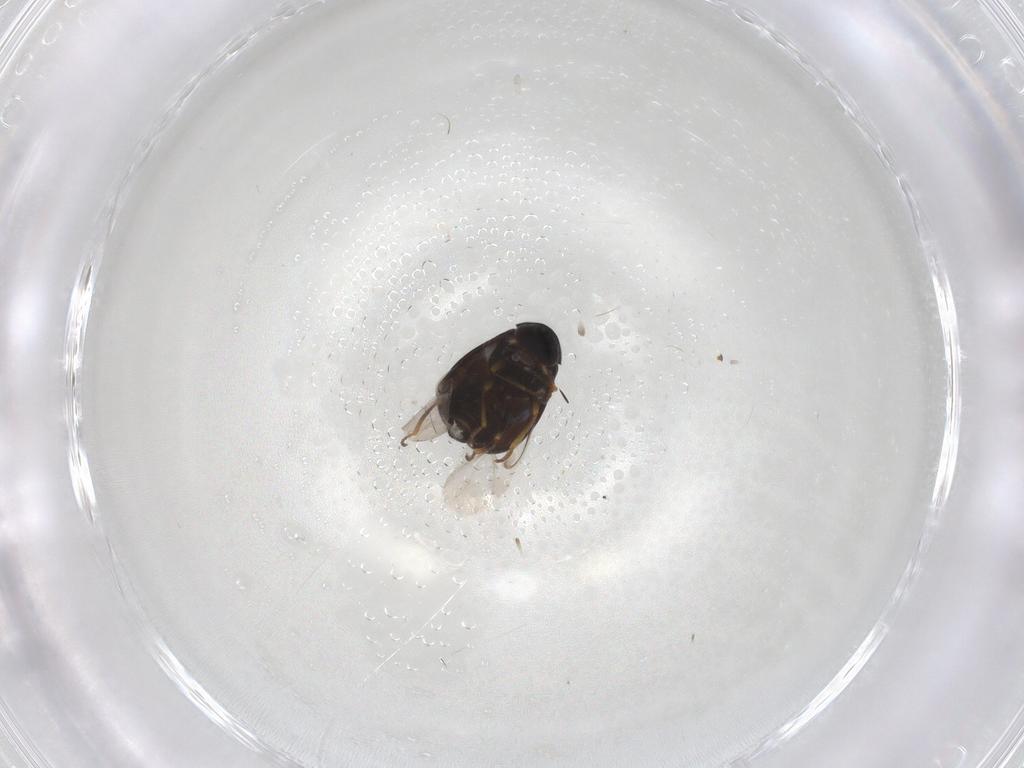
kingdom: Animalia
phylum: Arthropoda
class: Insecta
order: Coleoptera
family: Melyridae
